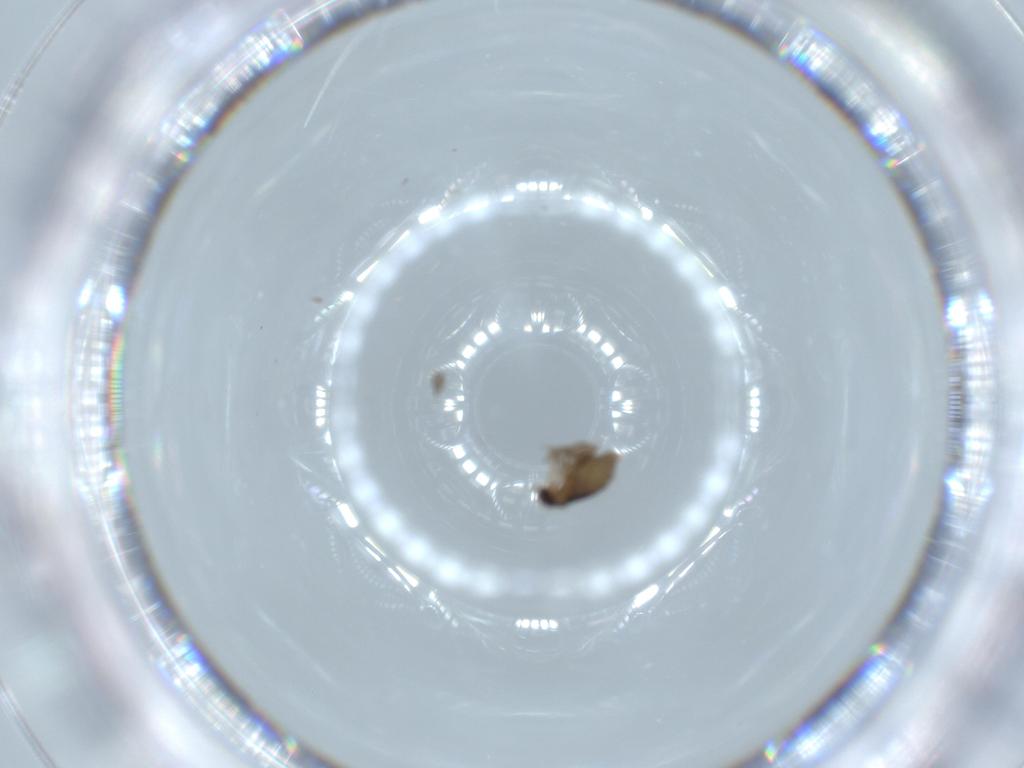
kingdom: Animalia
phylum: Arthropoda
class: Insecta
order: Diptera
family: Phoridae
